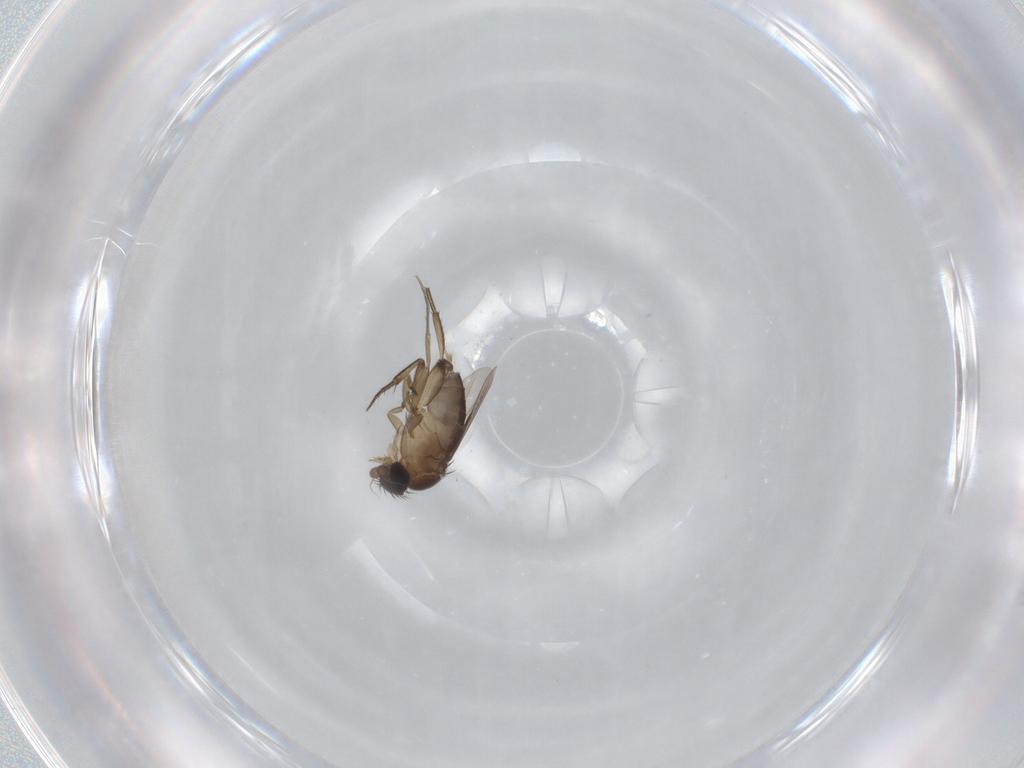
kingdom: Animalia
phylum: Arthropoda
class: Insecta
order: Diptera
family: Phoridae
